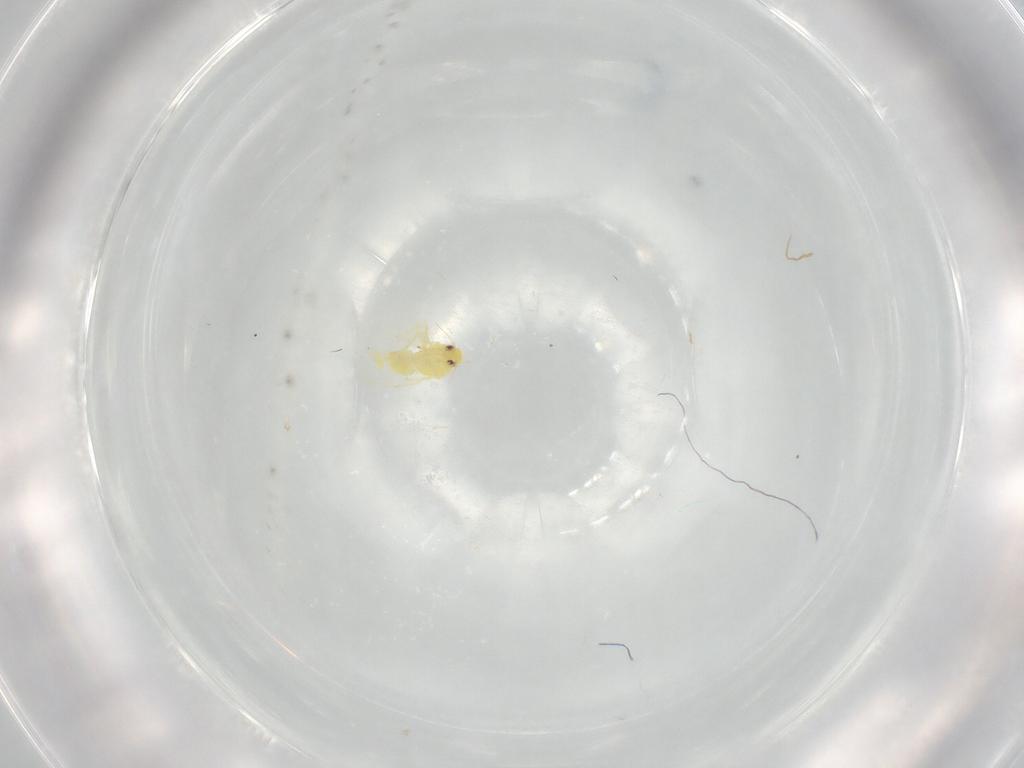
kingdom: Animalia
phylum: Arthropoda
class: Insecta
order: Hemiptera
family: Aleyrodidae
